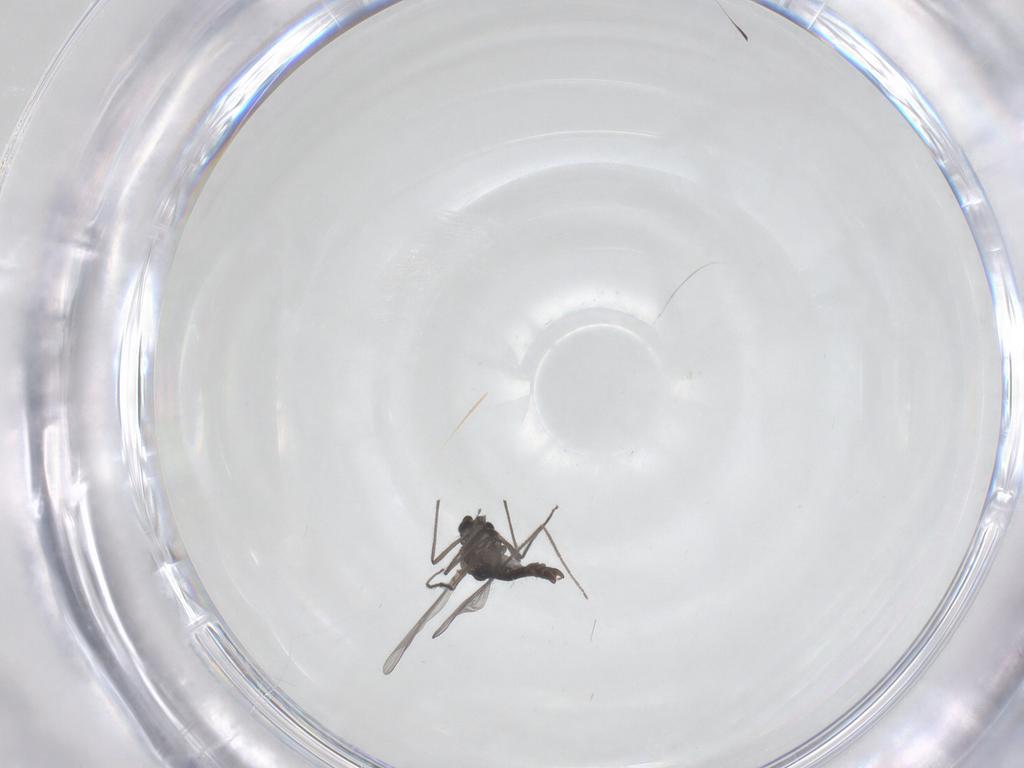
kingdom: Animalia
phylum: Arthropoda
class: Insecta
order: Diptera
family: Chironomidae
